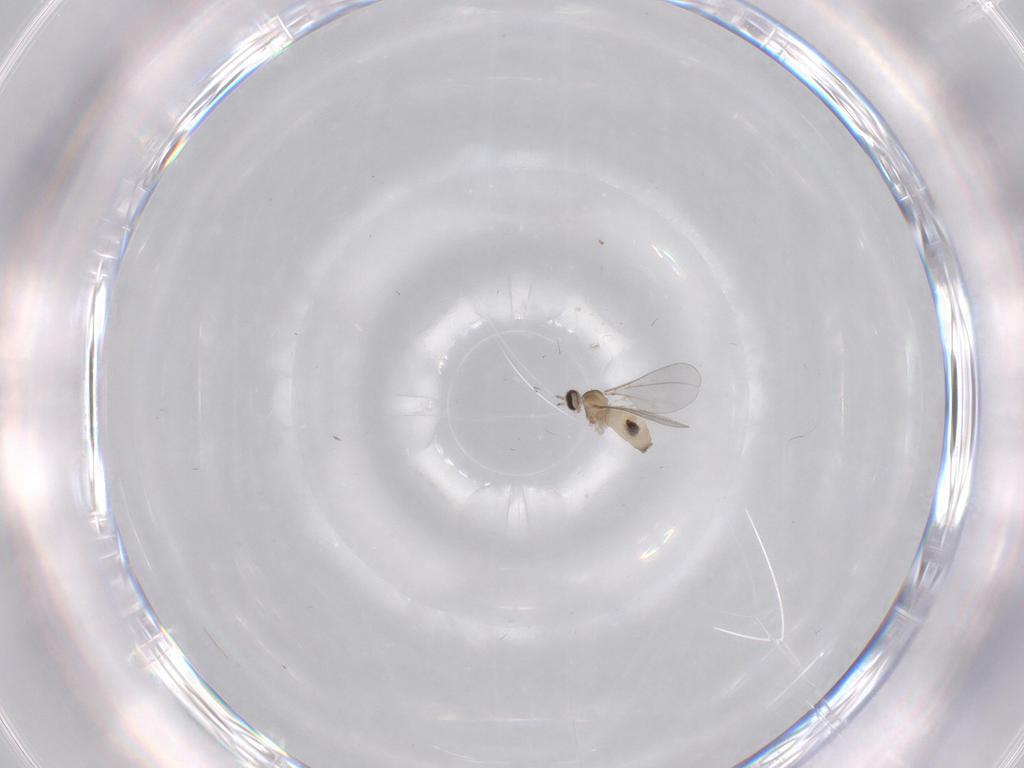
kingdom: Animalia
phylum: Arthropoda
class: Insecta
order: Diptera
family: Cecidomyiidae
